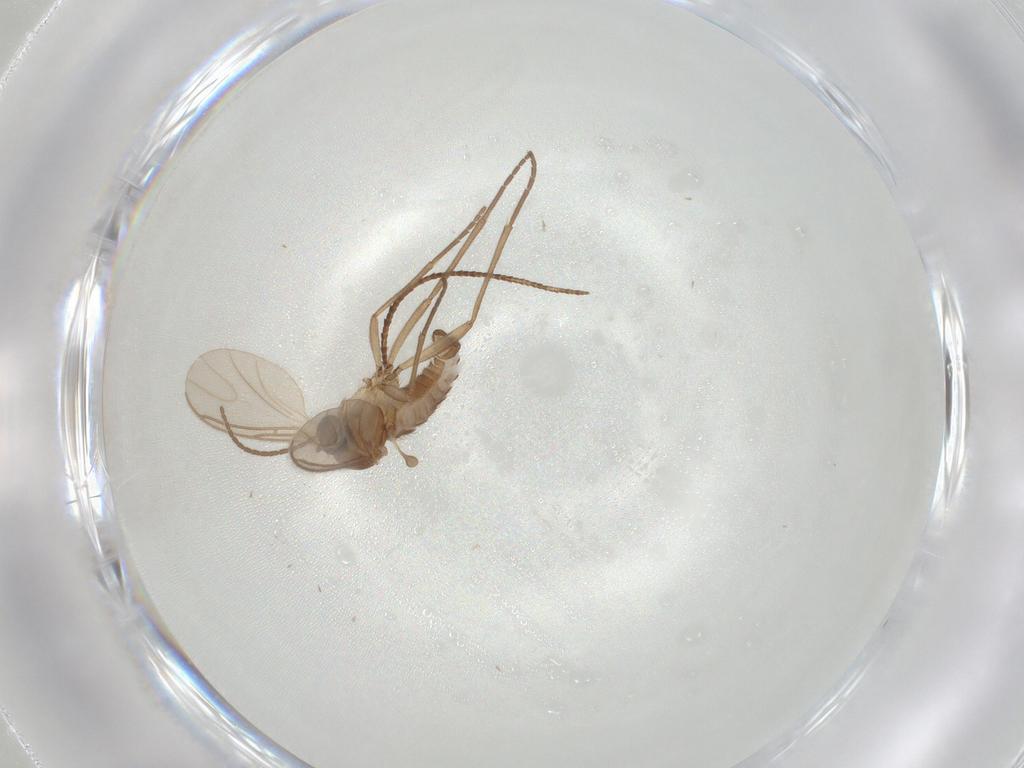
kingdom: Animalia
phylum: Arthropoda
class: Insecta
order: Diptera
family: Sciaridae
